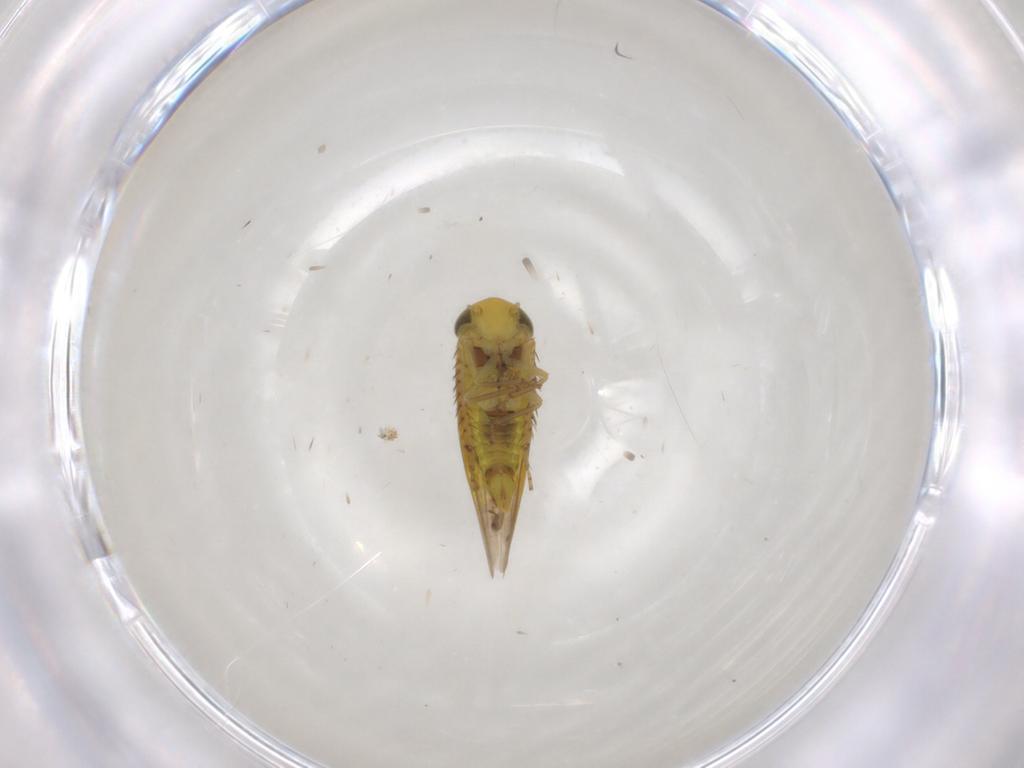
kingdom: Animalia
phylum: Arthropoda
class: Insecta
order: Hemiptera
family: Cicadellidae
